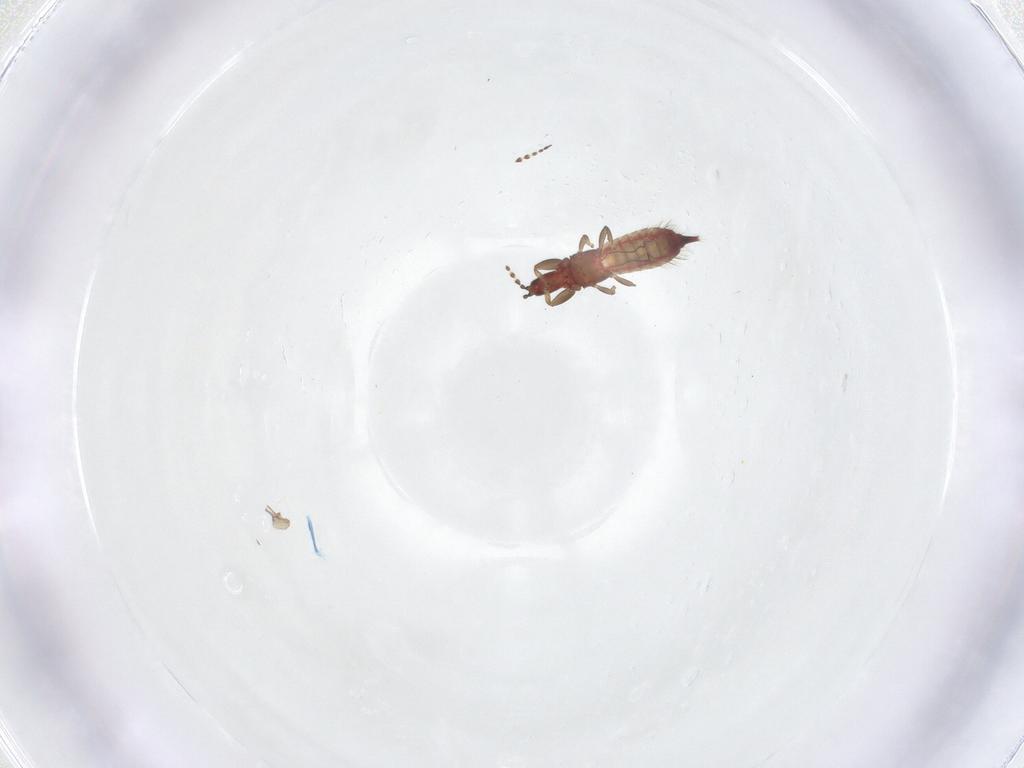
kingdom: Animalia
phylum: Arthropoda
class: Insecta
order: Thysanoptera
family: Phlaeothripidae
